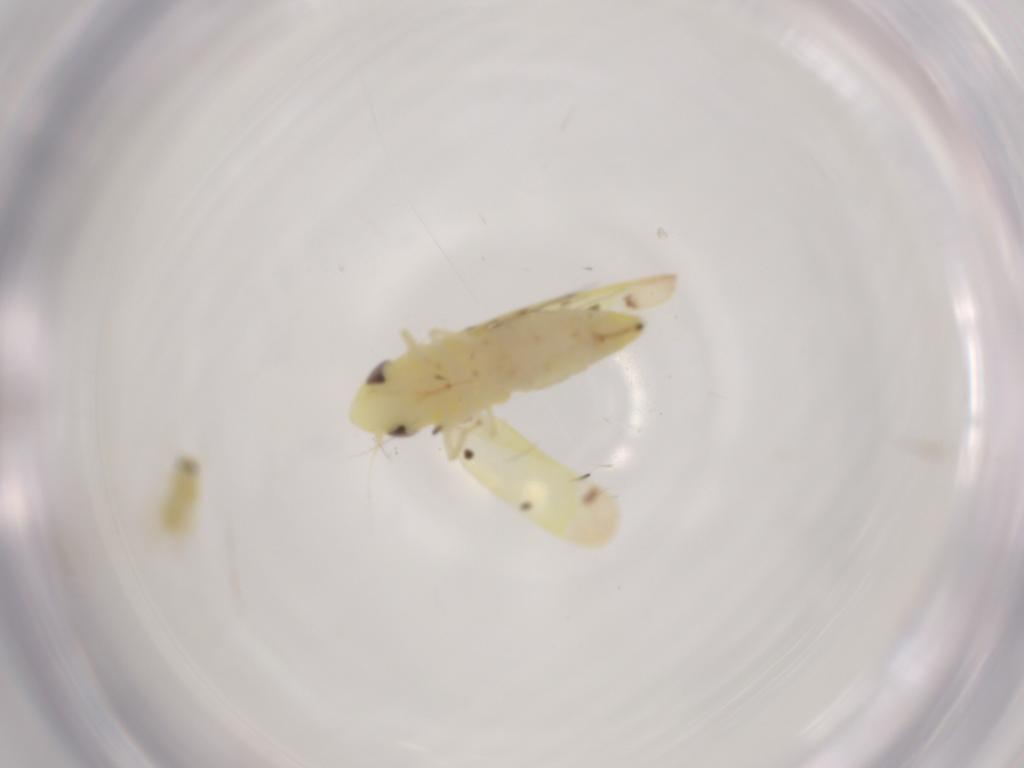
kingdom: Animalia
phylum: Arthropoda
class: Insecta
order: Hemiptera
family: Cicadellidae
